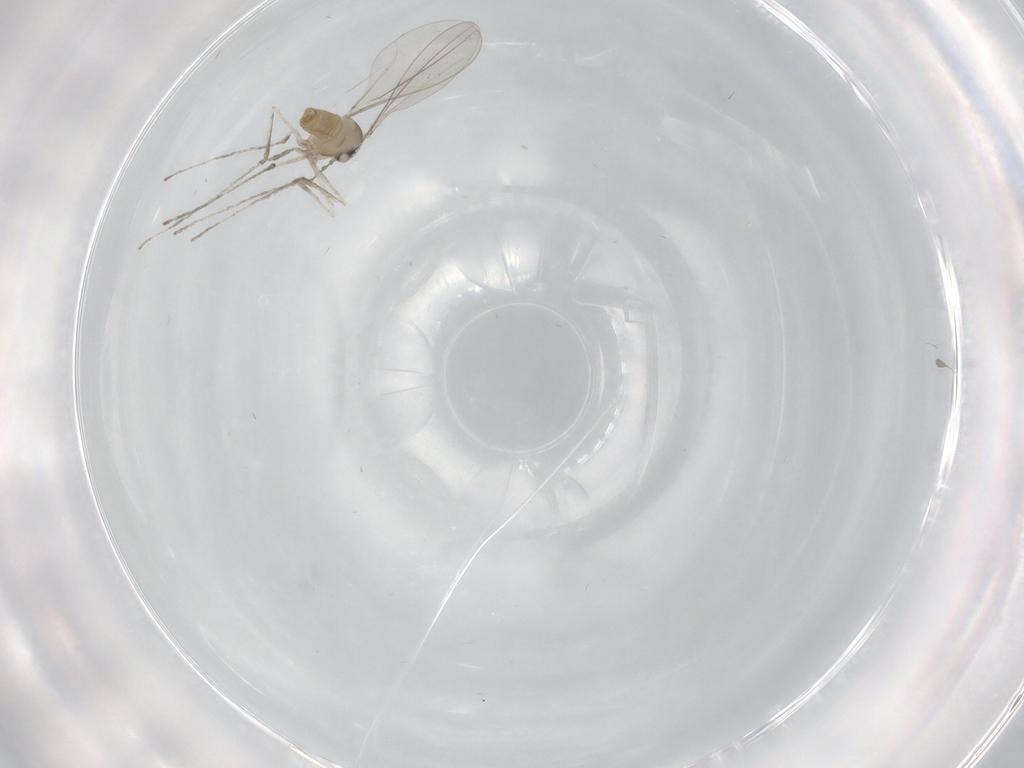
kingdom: Animalia
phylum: Arthropoda
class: Insecta
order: Diptera
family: Cecidomyiidae
